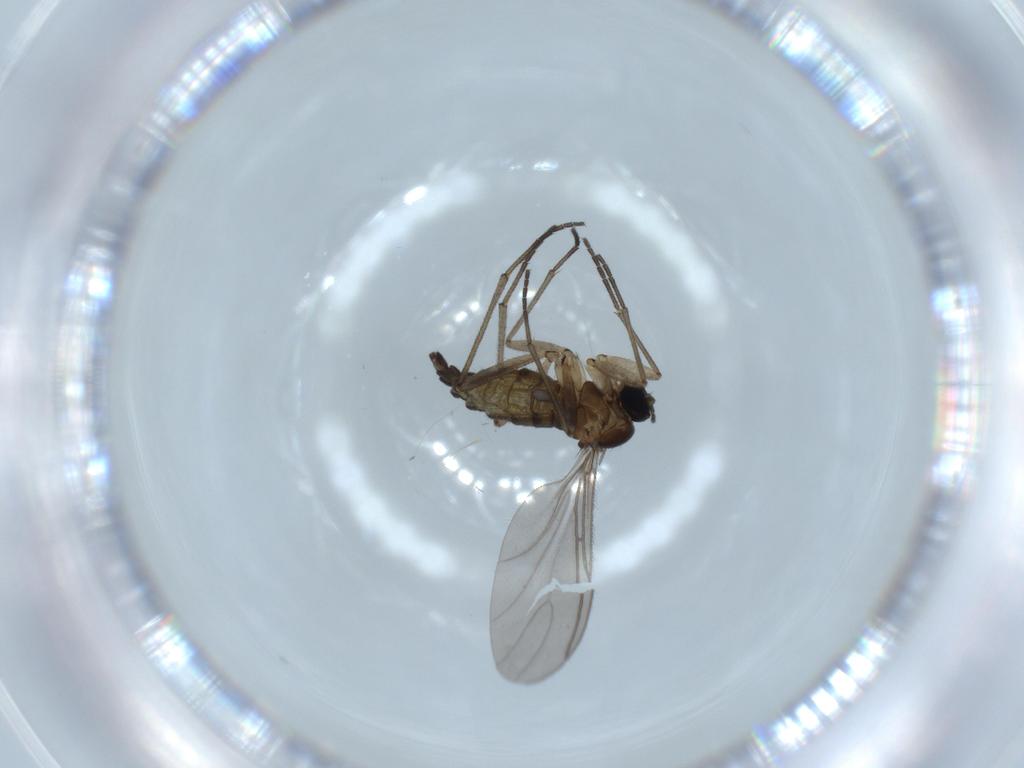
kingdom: Animalia
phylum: Arthropoda
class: Insecta
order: Diptera
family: Sciaridae
